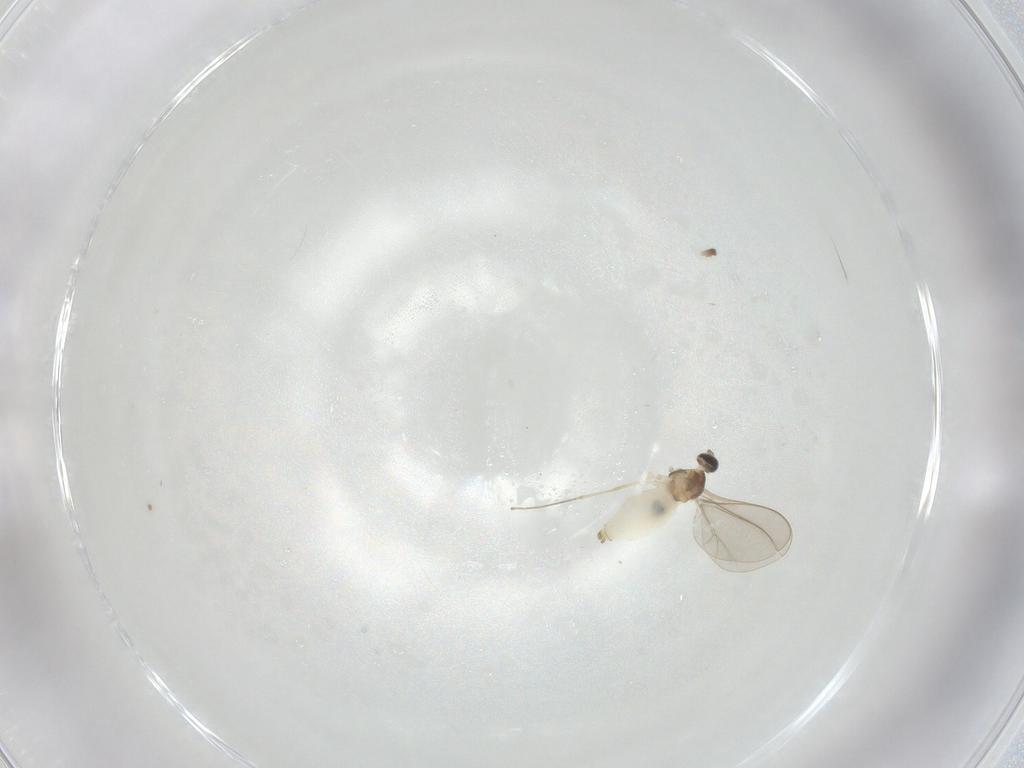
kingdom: Animalia
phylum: Arthropoda
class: Insecta
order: Diptera
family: Cecidomyiidae
